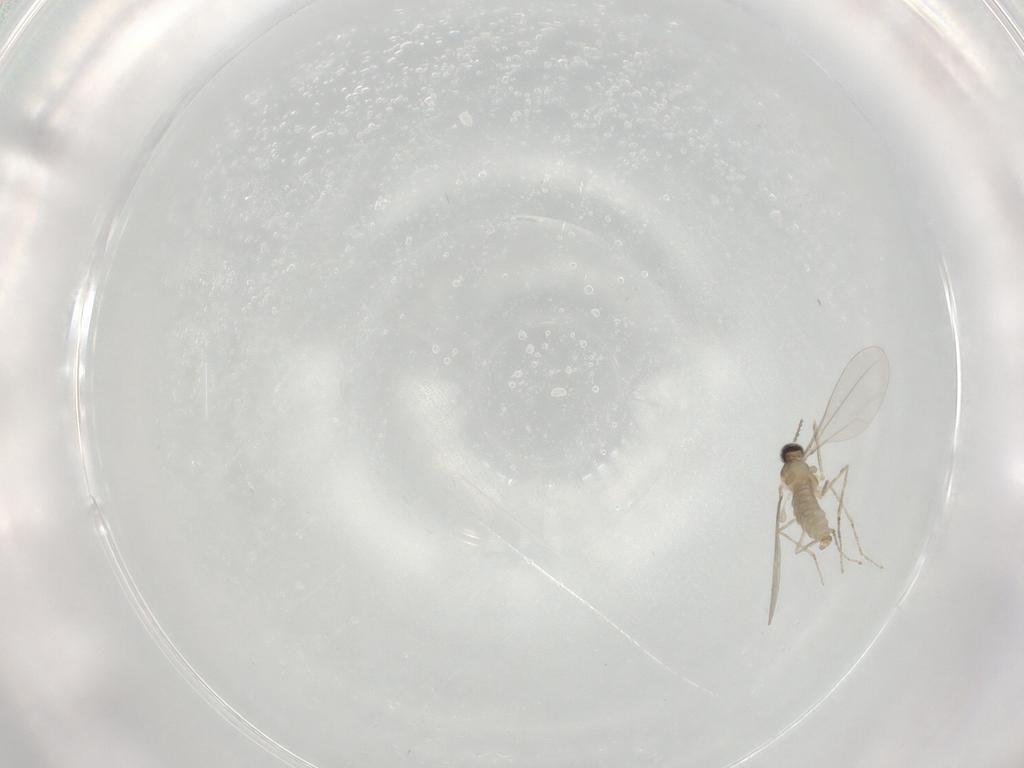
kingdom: Animalia
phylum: Arthropoda
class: Insecta
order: Diptera
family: Cecidomyiidae
